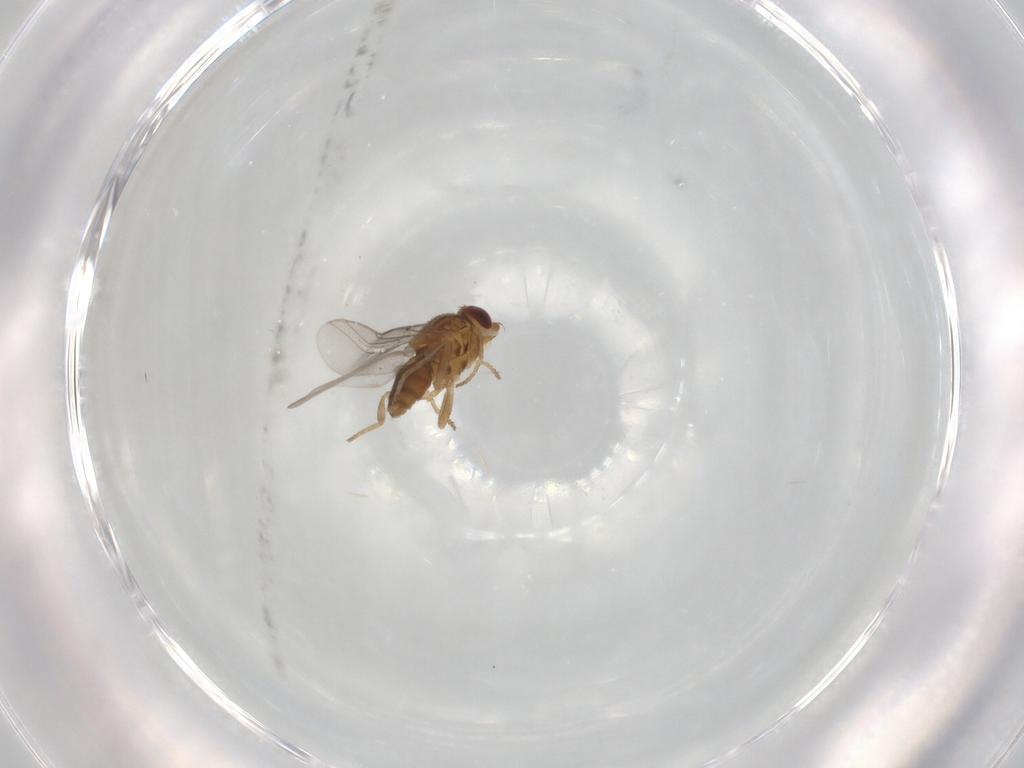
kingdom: Animalia
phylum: Arthropoda
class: Insecta
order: Diptera
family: Chloropidae
